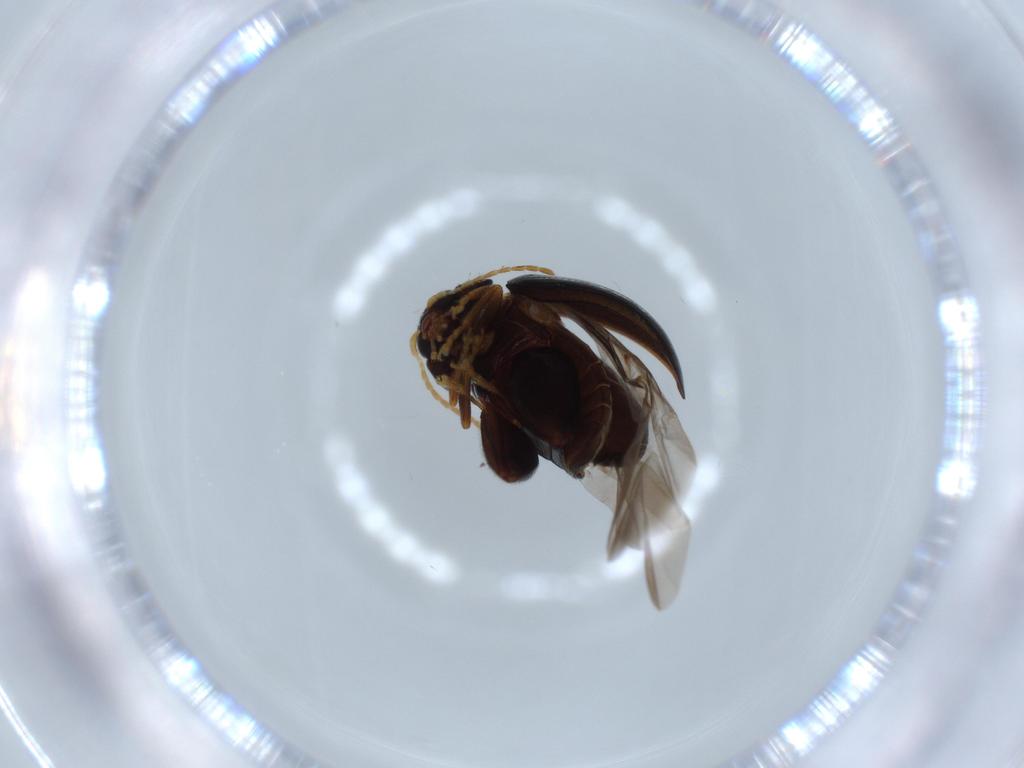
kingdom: Animalia
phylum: Arthropoda
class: Insecta
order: Coleoptera
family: Chrysomelidae
